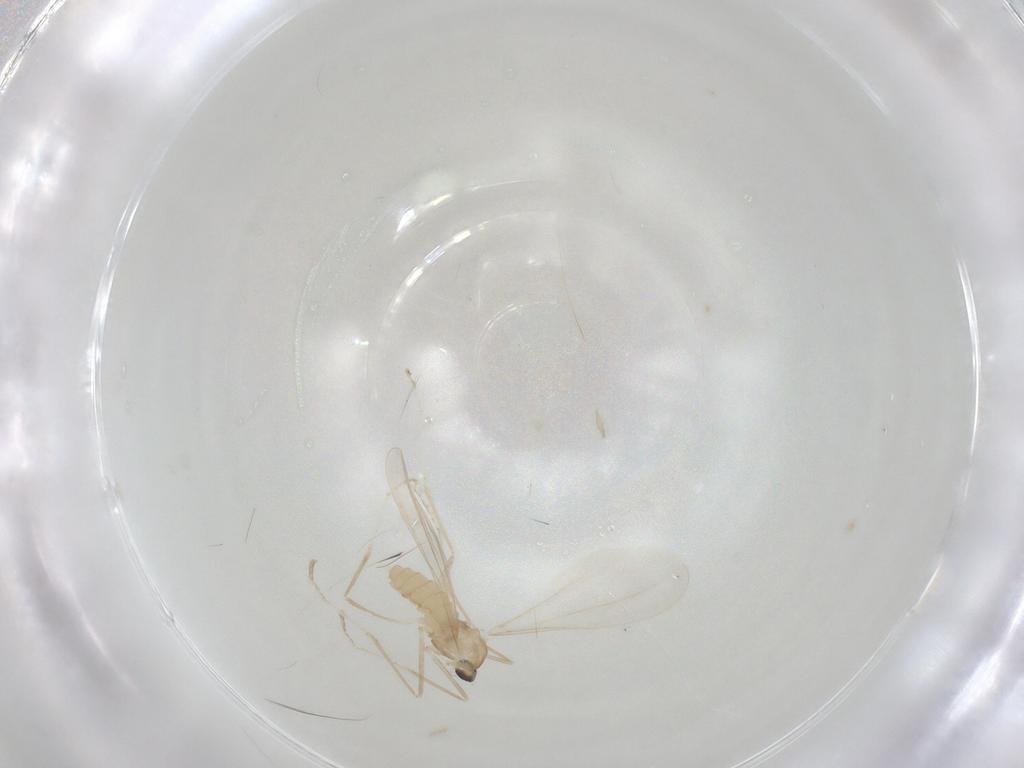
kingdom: Animalia
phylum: Arthropoda
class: Insecta
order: Diptera
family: Cecidomyiidae
